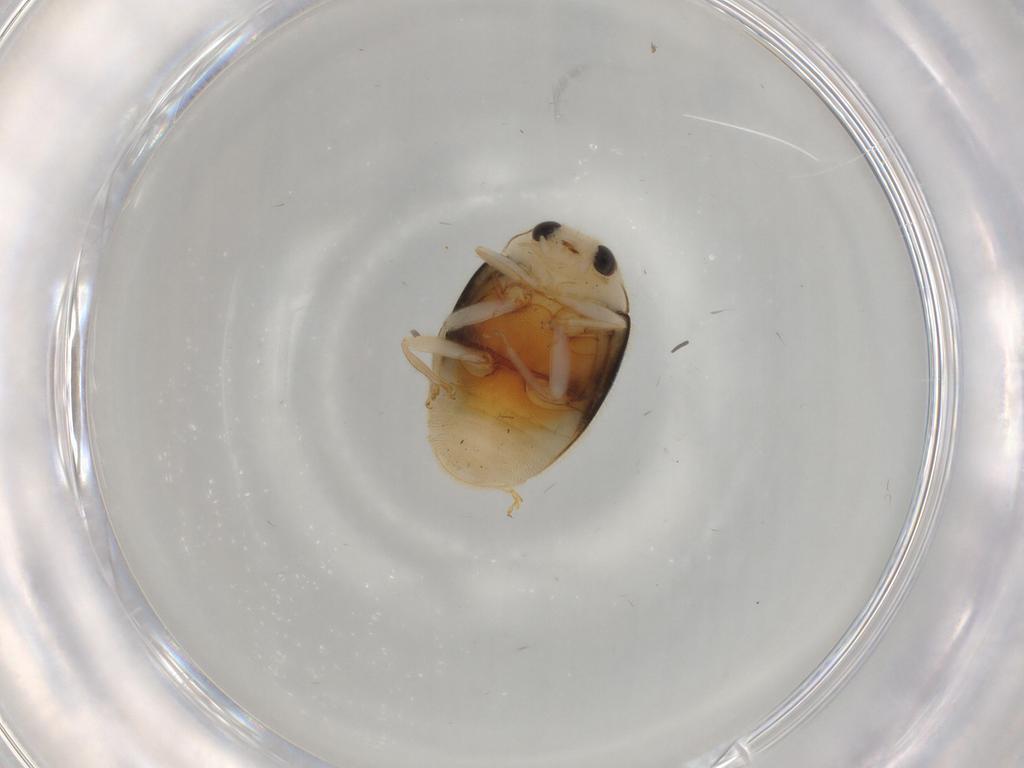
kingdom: Animalia
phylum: Arthropoda
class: Insecta
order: Coleoptera
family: Coccinellidae
